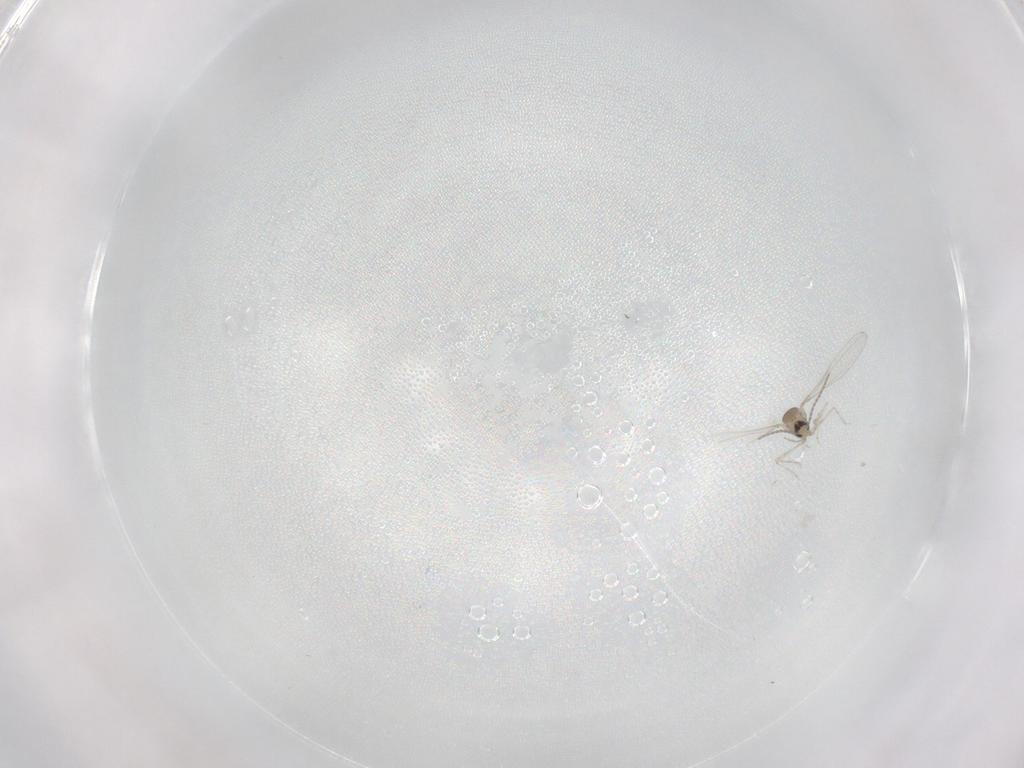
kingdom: Animalia
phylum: Arthropoda
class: Insecta
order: Diptera
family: Cecidomyiidae
